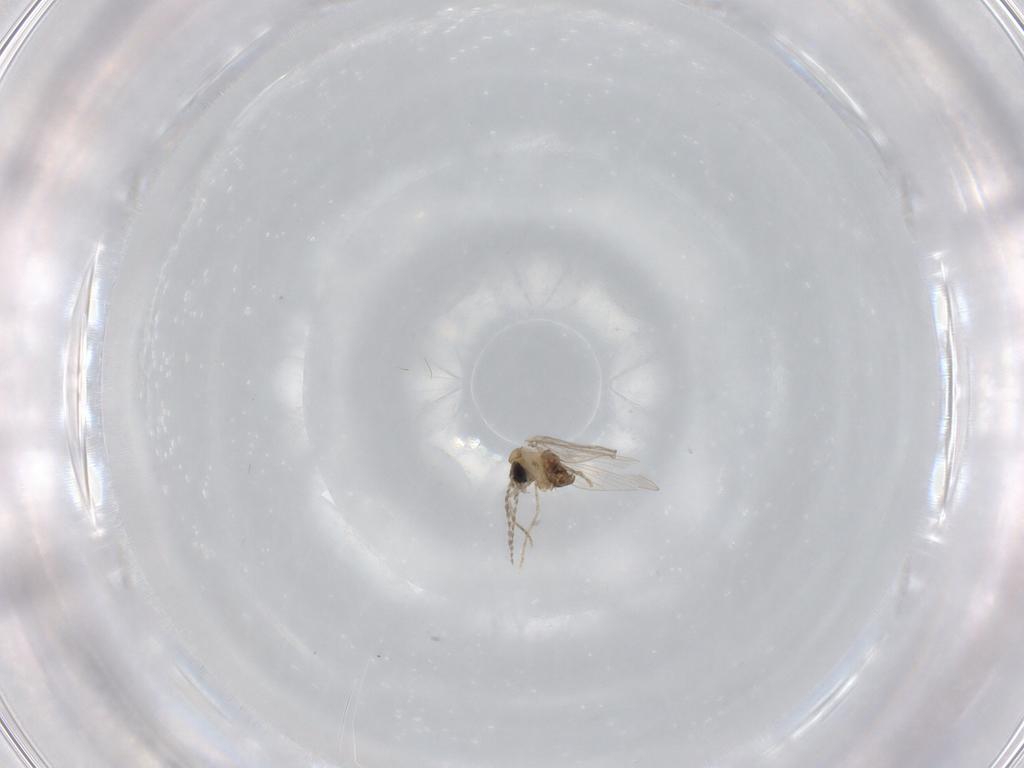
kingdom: Animalia
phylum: Arthropoda
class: Insecta
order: Diptera
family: Psychodidae
